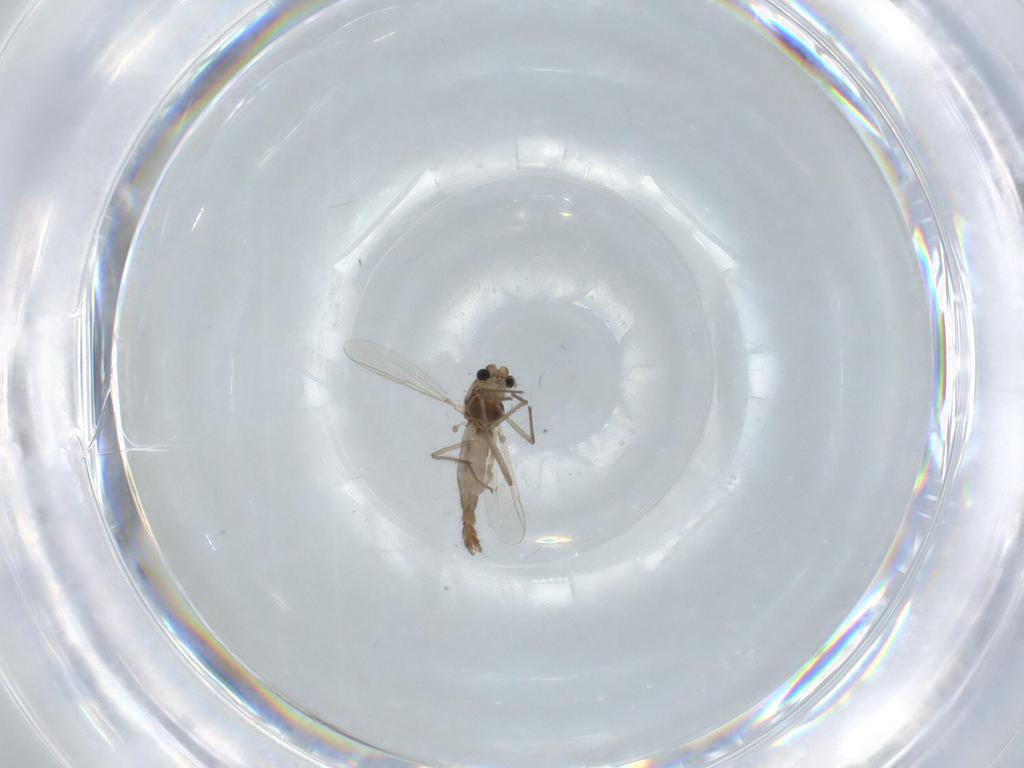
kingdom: Animalia
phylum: Arthropoda
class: Insecta
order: Diptera
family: Chironomidae
